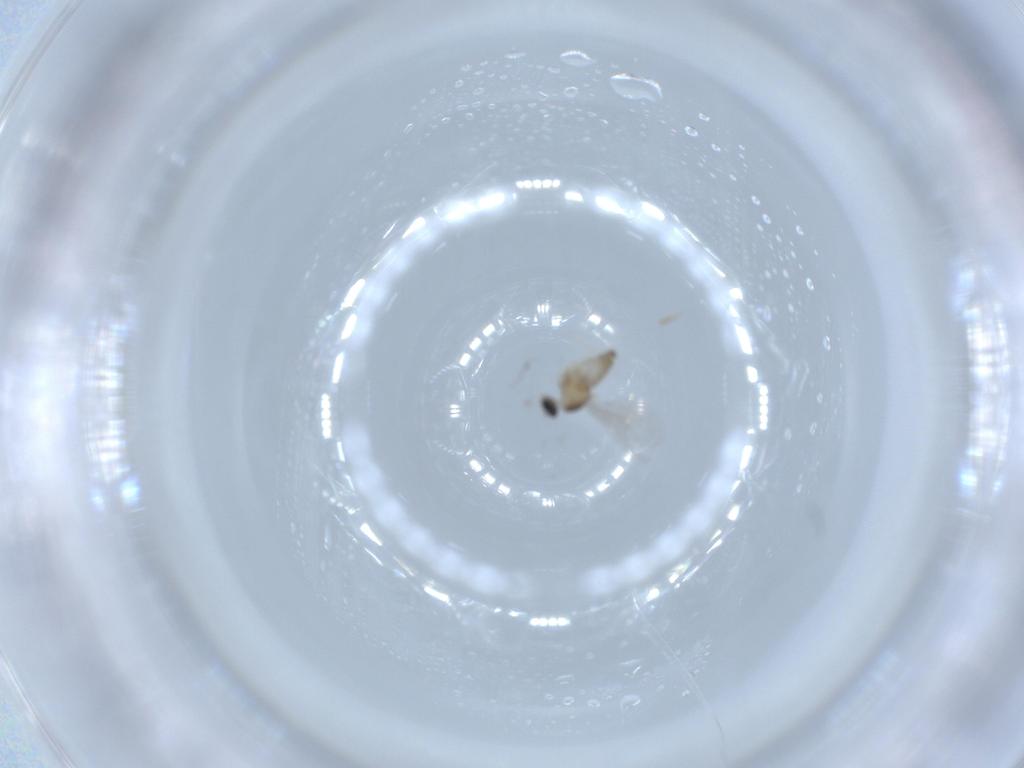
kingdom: Animalia
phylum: Arthropoda
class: Insecta
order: Diptera
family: Cecidomyiidae
